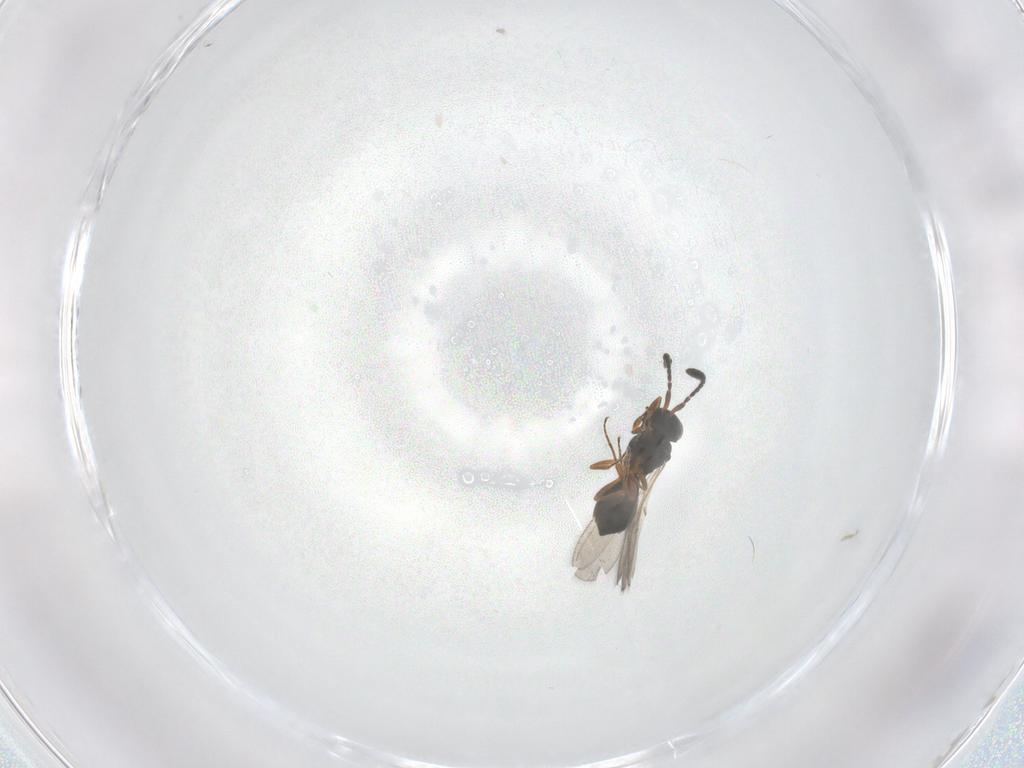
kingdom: Animalia
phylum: Arthropoda
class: Insecta
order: Hymenoptera
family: Scelionidae
